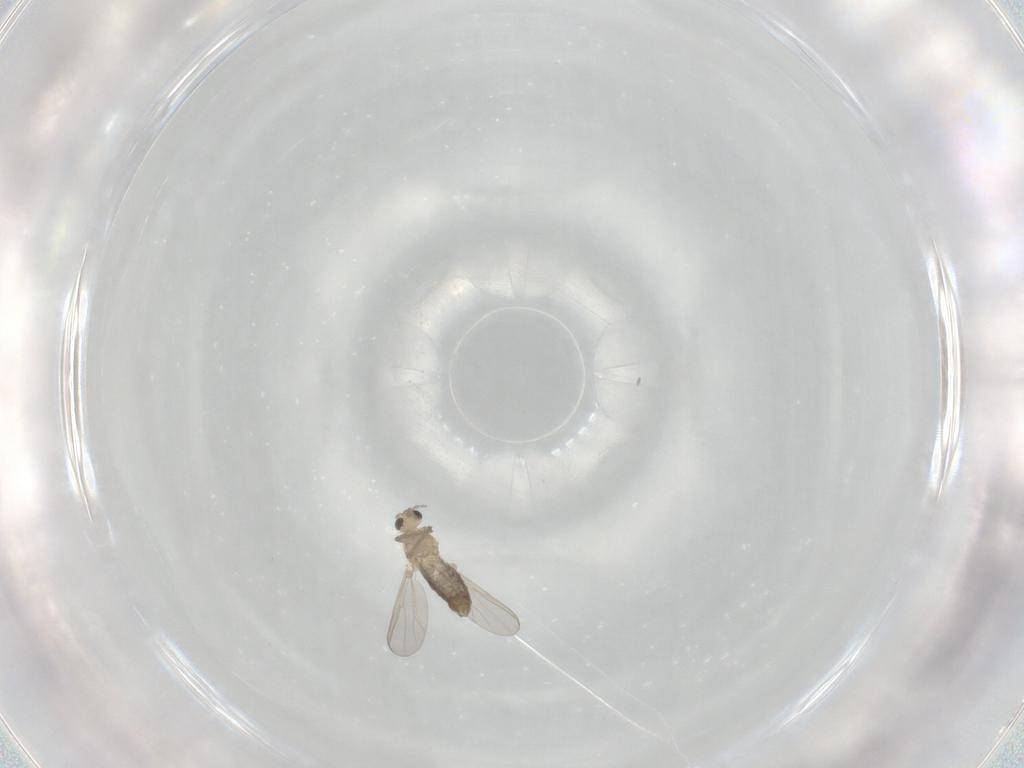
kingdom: Animalia
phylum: Arthropoda
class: Insecta
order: Diptera
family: Chironomidae
